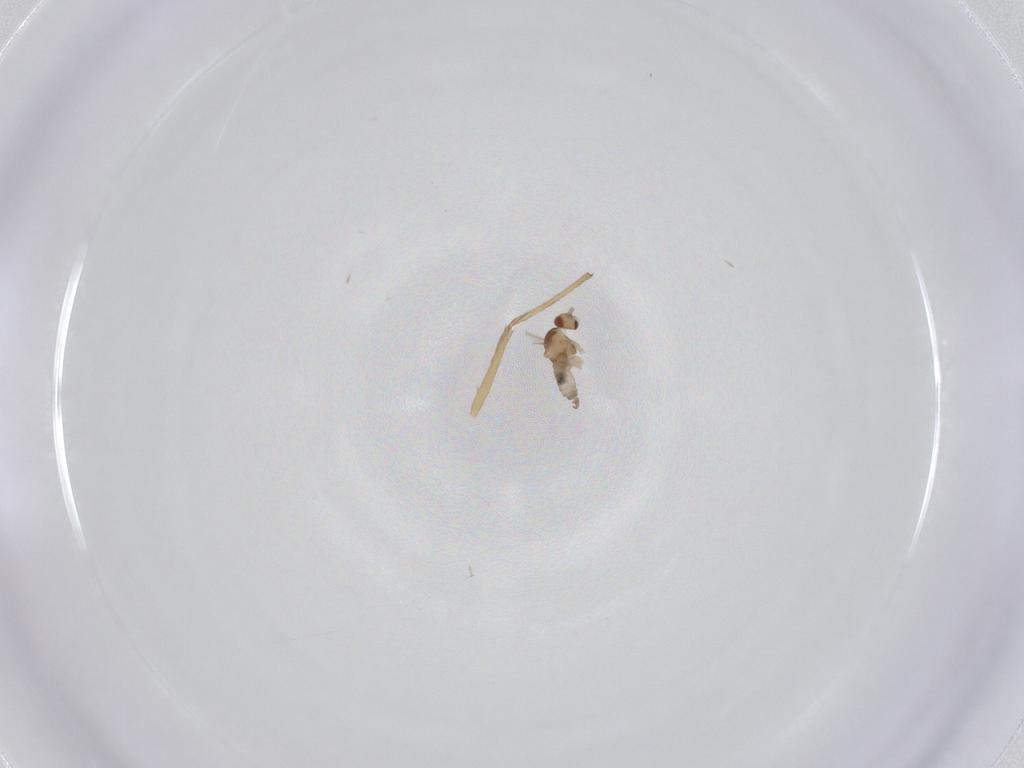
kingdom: Animalia
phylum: Arthropoda
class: Insecta
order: Diptera
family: Cecidomyiidae
